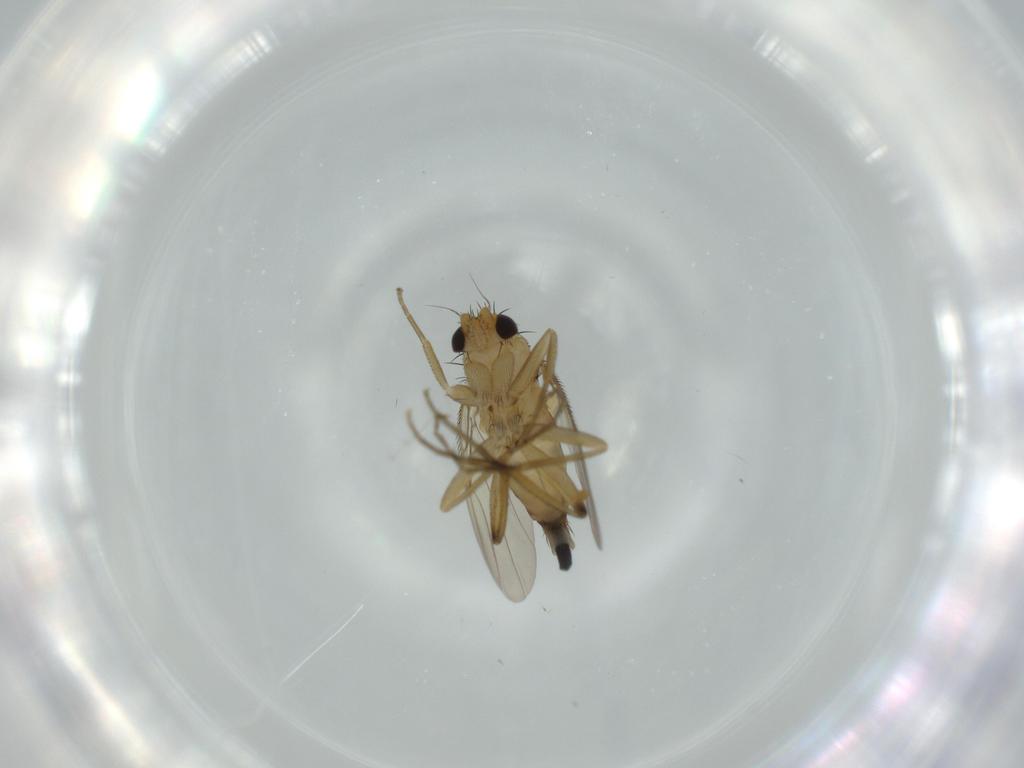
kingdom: Animalia
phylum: Arthropoda
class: Insecta
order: Diptera
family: Phoridae
